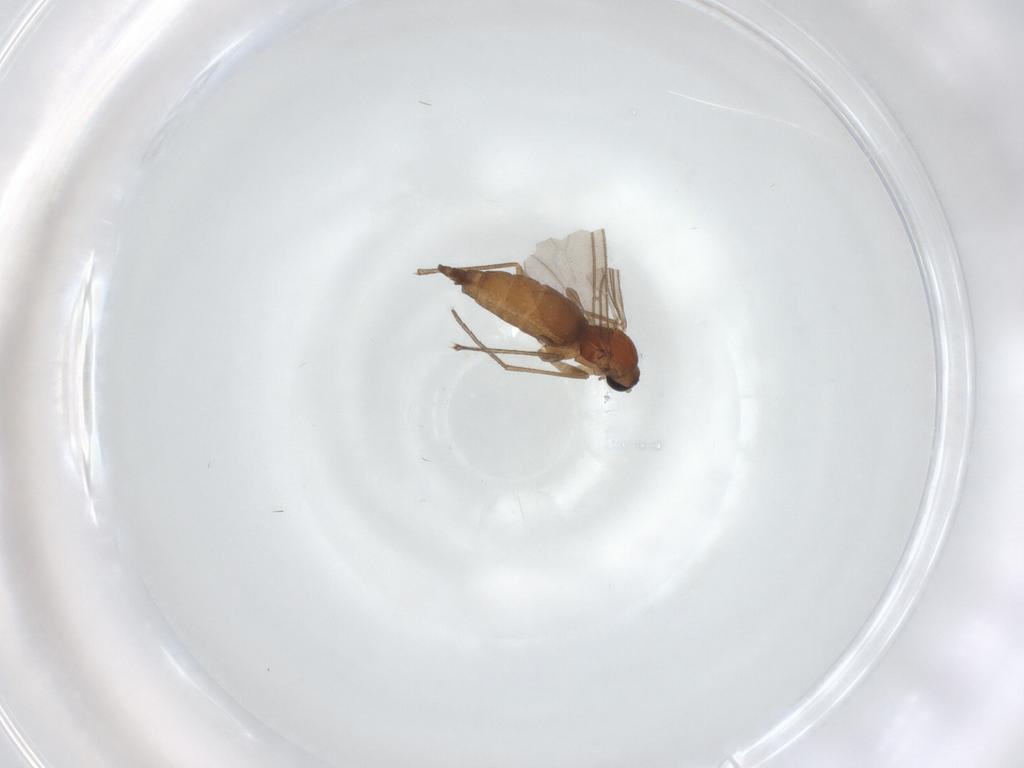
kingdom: Animalia
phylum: Arthropoda
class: Insecta
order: Diptera
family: Sciaridae
